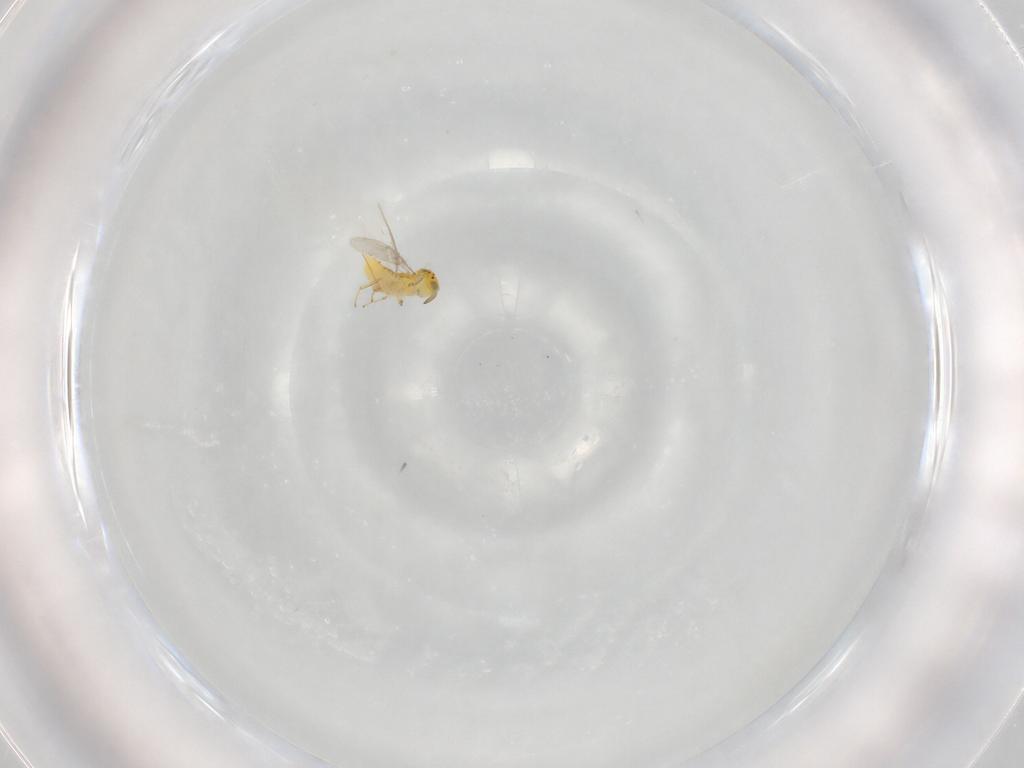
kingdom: Animalia
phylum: Arthropoda
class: Insecta
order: Hymenoptera
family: Aphelinidae
